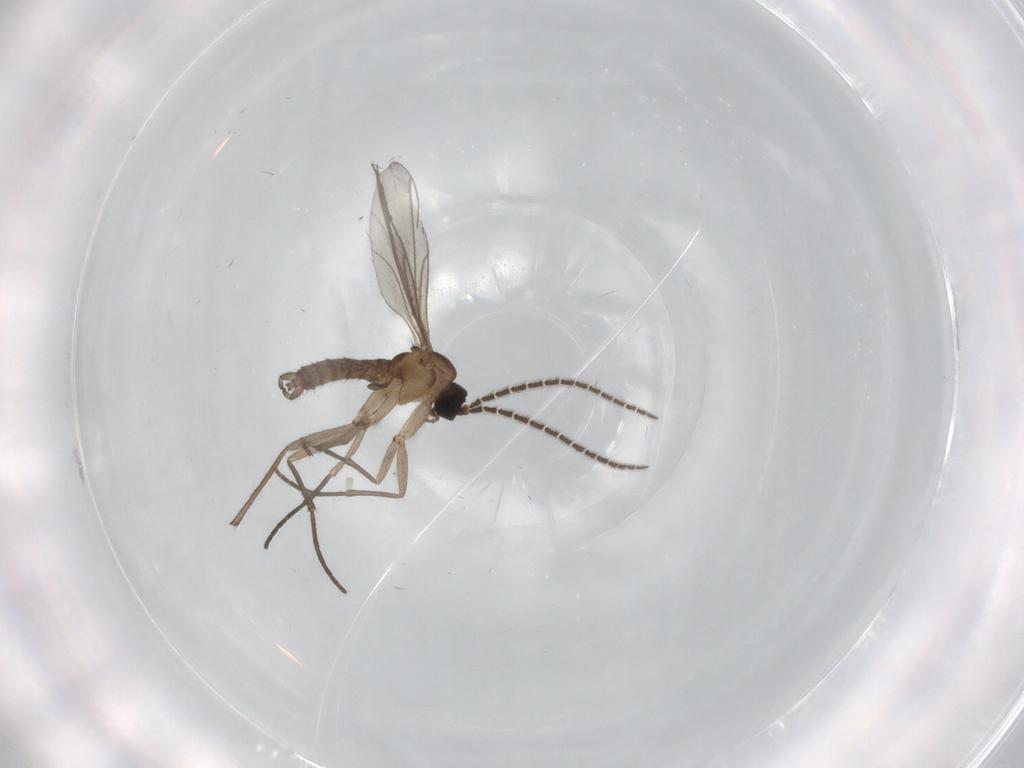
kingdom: Animalia
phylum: Arthropoda
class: Insecta
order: Diptera
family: Sciaridae
